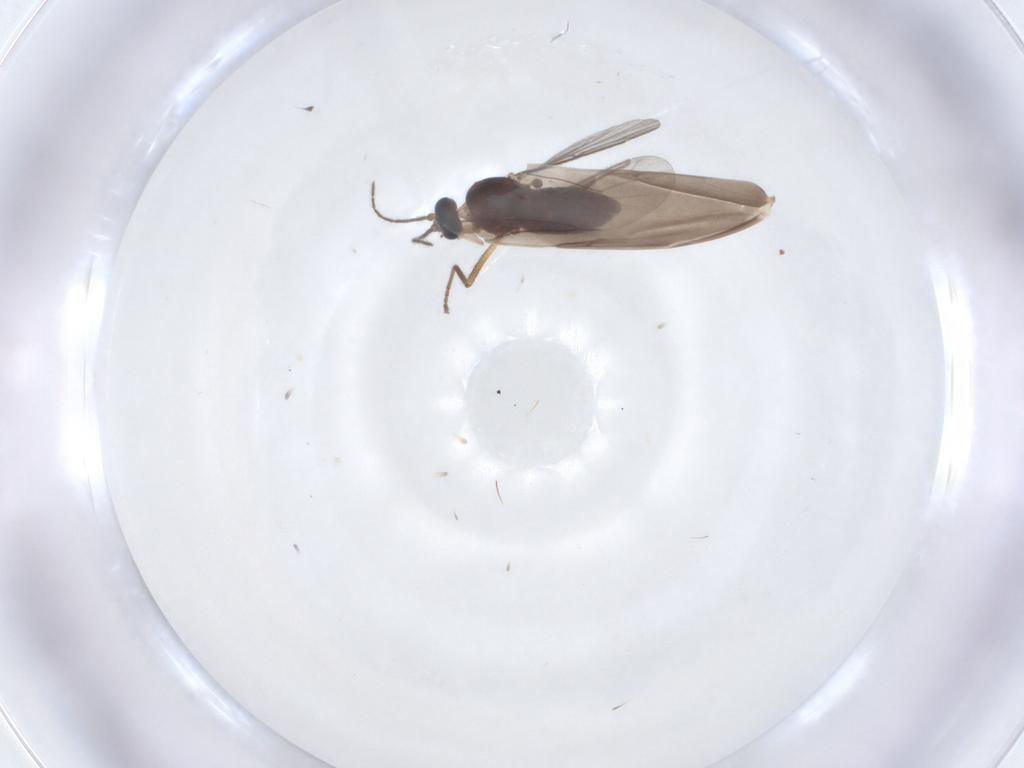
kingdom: Animalia
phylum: Arthropoda
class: Insecta
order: Diptera
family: Ceratopogonidae
